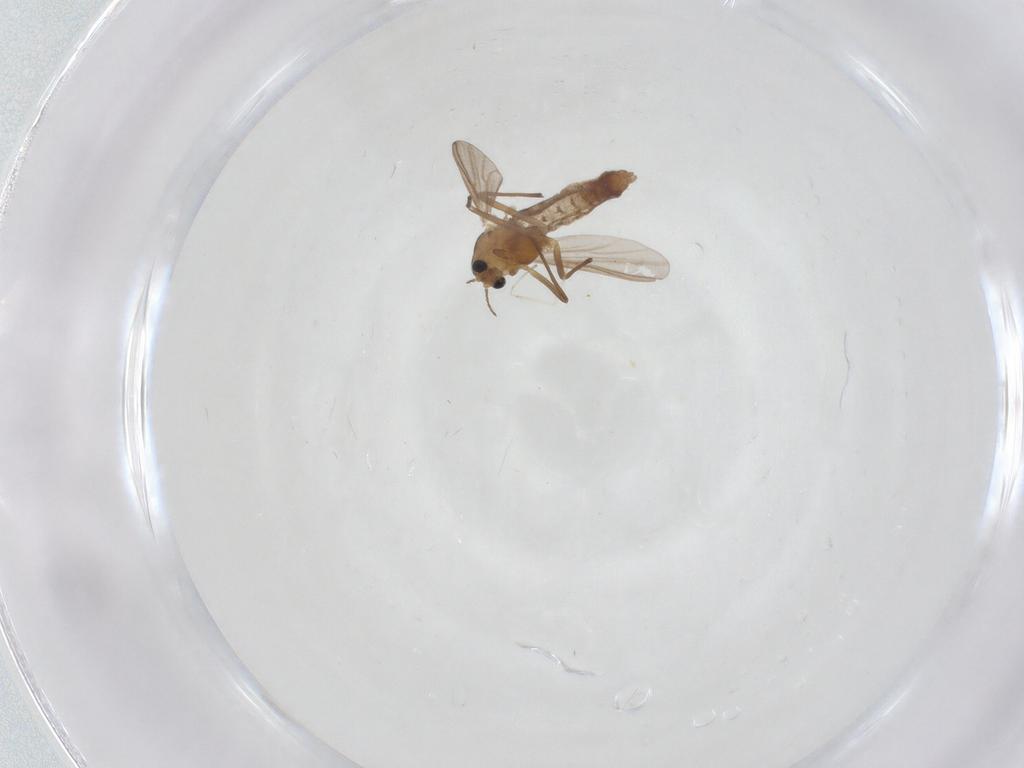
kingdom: Animalia
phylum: Arthropoda
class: Insecta
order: Diptera
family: Chironomidae
